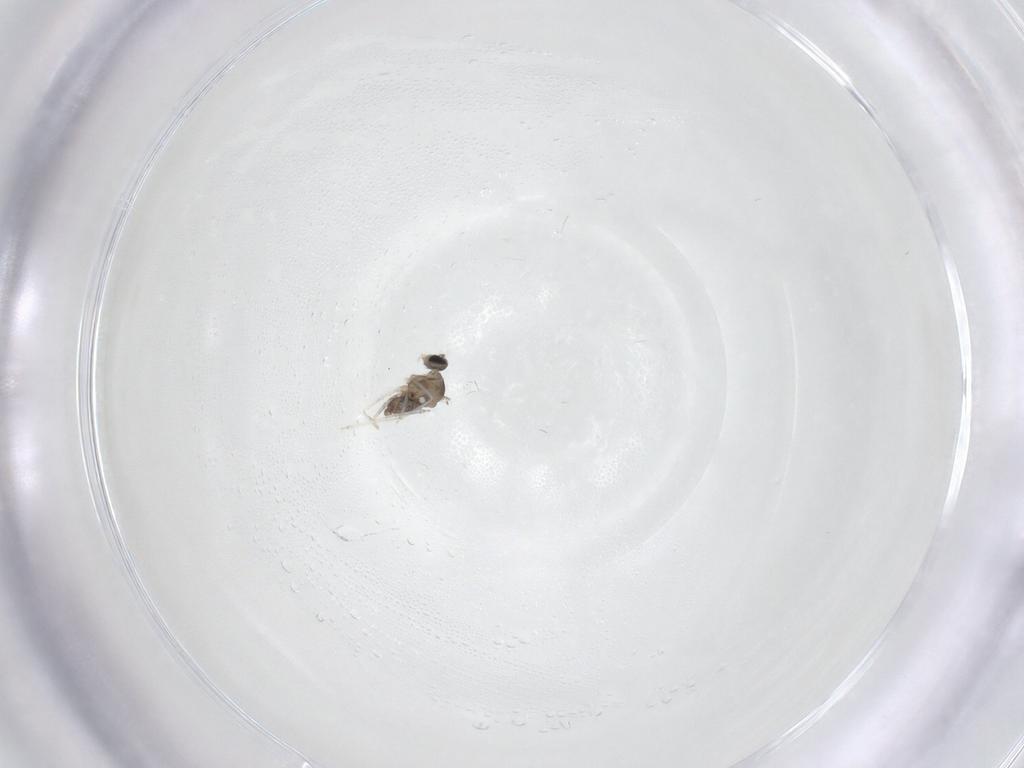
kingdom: Animalia
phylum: Arthropoda
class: Insecta
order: Diptera
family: Cecidomyiidae
